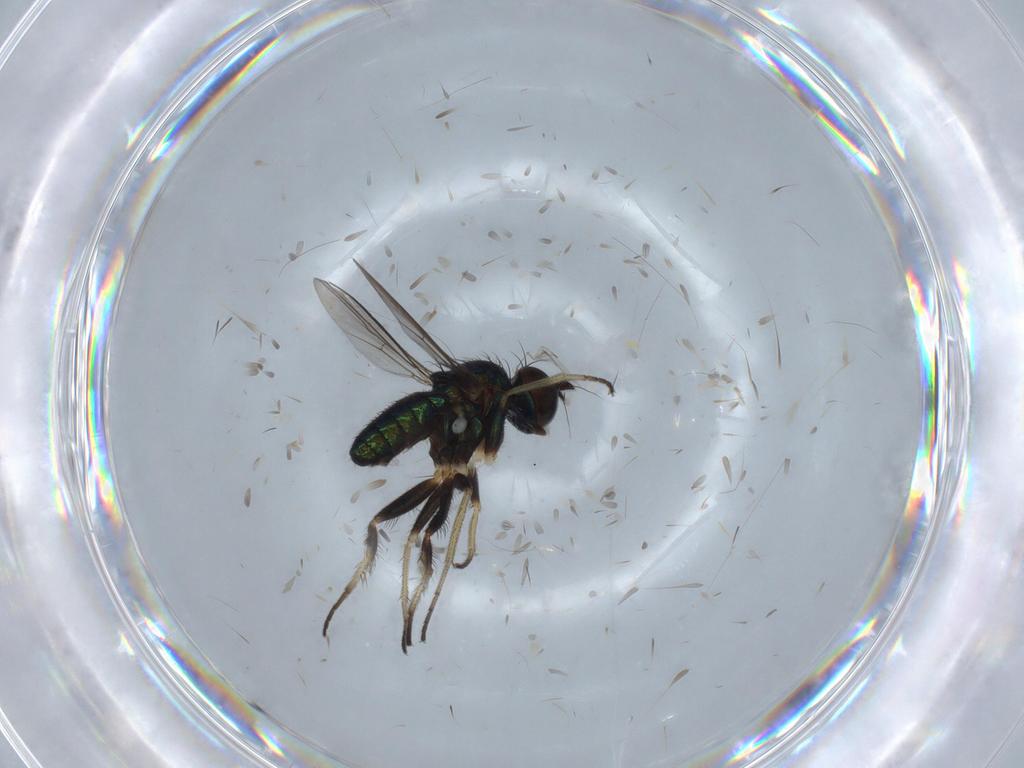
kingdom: Animalia
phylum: Arthropoda
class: Insecta
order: Diptera
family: Dolichopodidae
